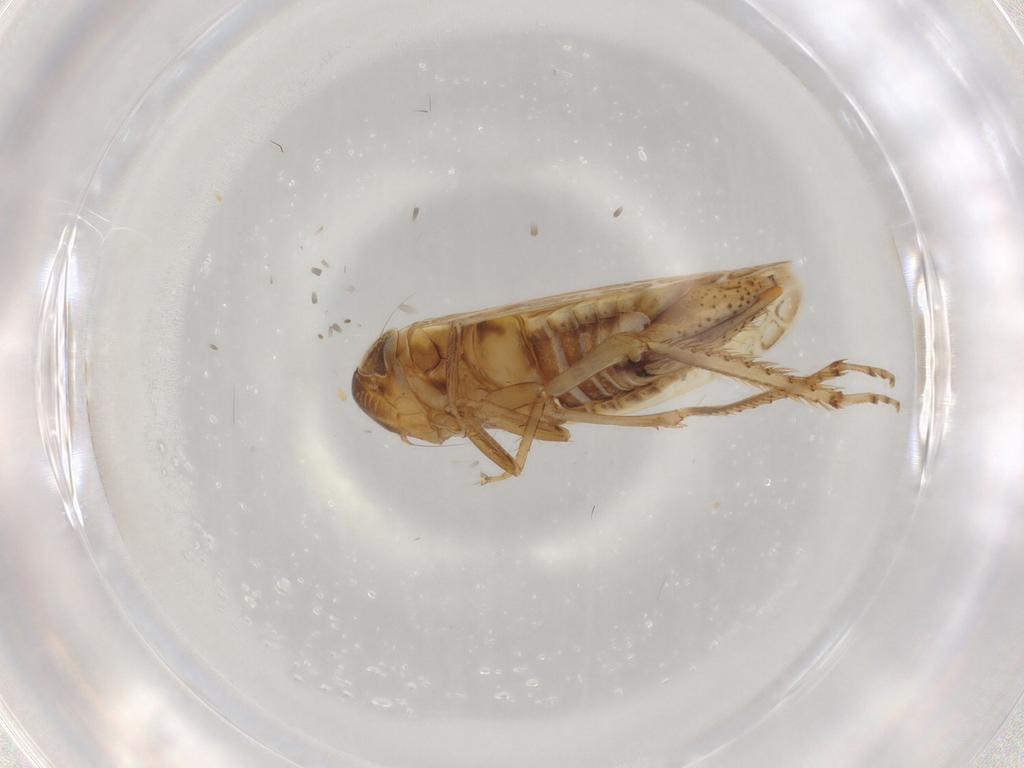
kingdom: Animalia
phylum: Arthropoda
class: Insecta
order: Hemiptera
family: Cicadellidae
